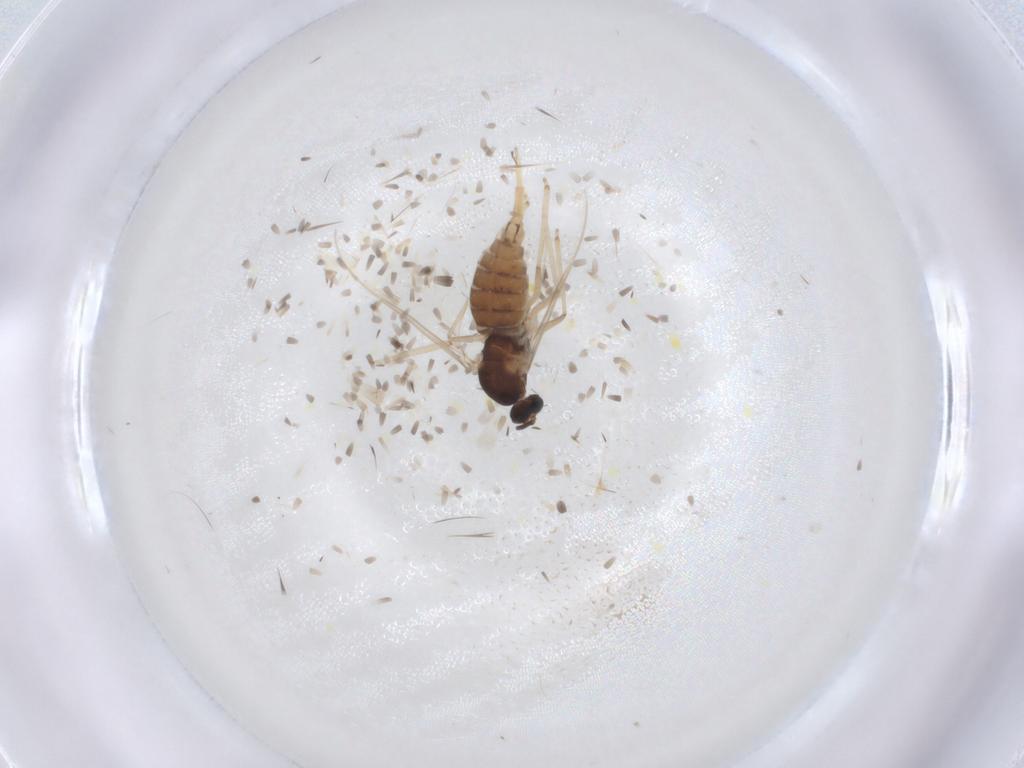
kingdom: Animalia
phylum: Arthropoda
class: Insecta
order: Diptera
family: Cecidomyiidae
